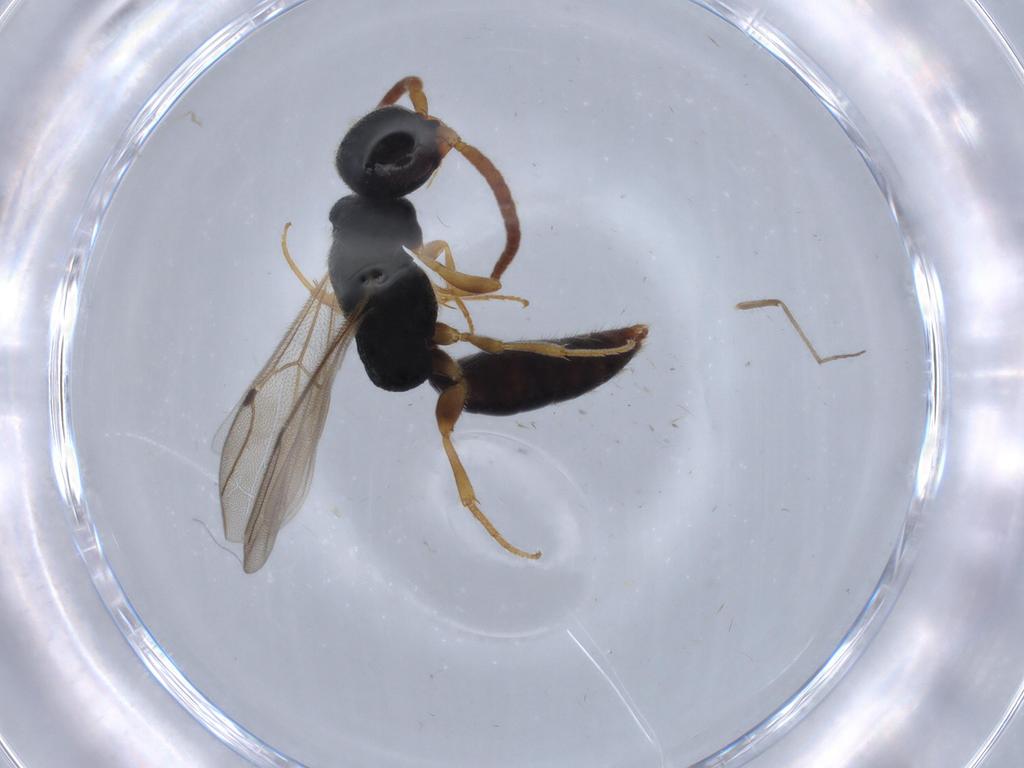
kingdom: Animalia
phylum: Arthropoda
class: Insecta
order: Hymenoptera
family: Bethylidae
